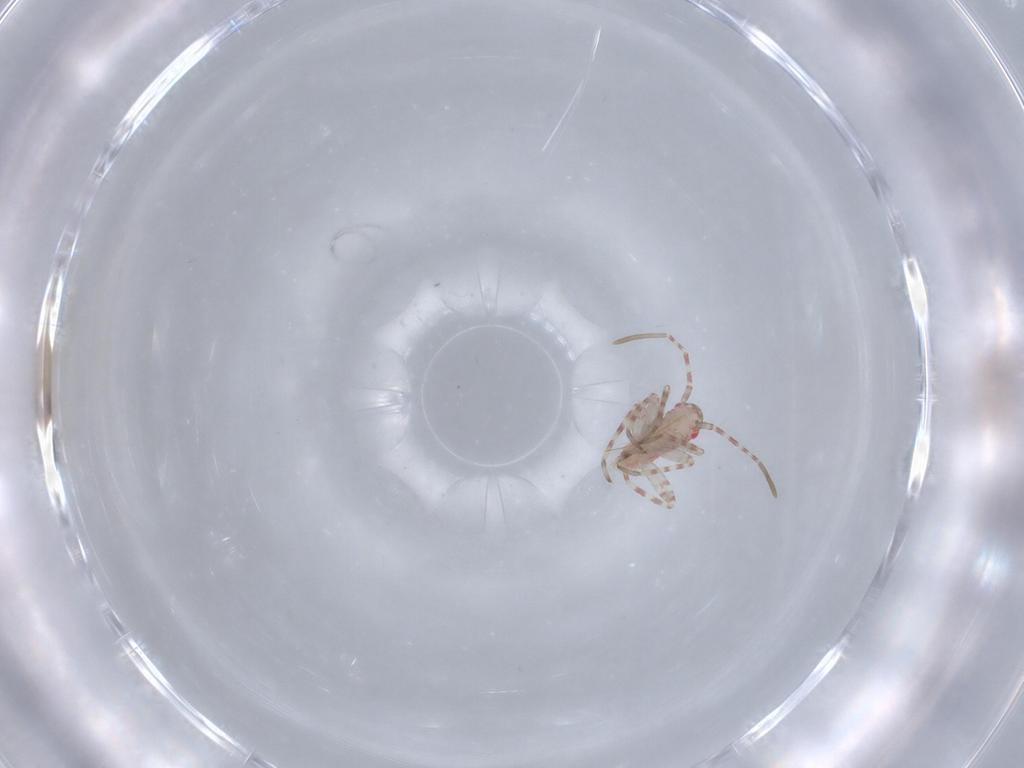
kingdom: Animalia
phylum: Arthropoda
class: Insecta
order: Hemiptera
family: Miridae
